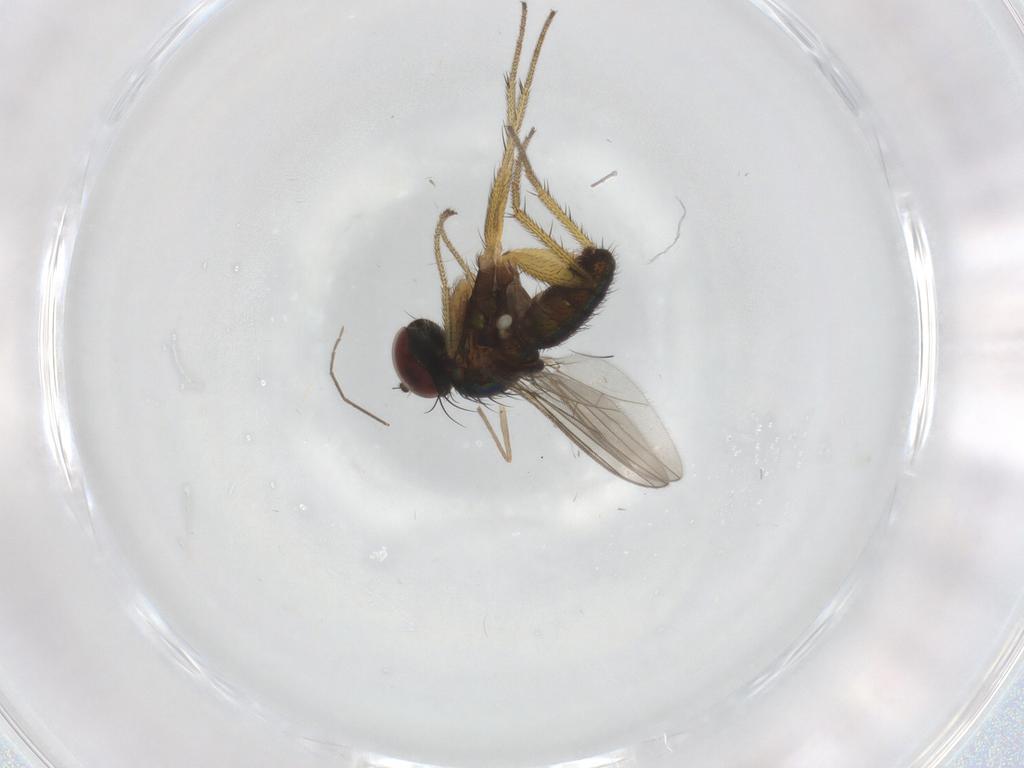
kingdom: Animalia
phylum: Arthropoda
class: Insecta
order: Diptera
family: Chironomidae
